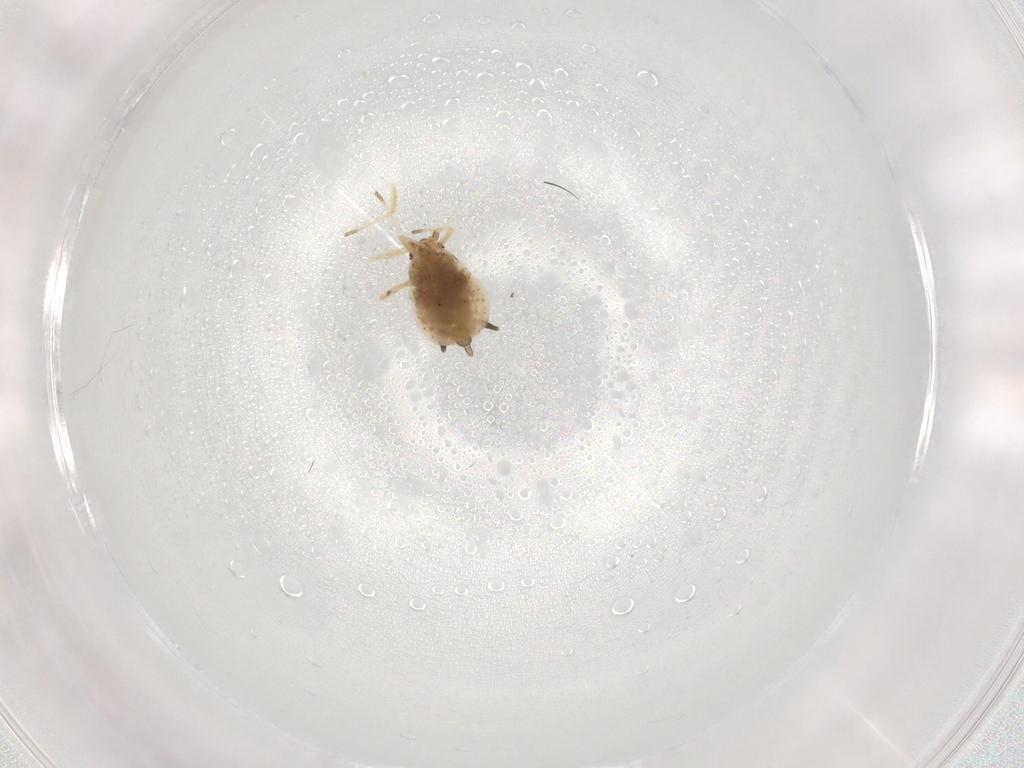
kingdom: Animalia
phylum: Arthropoda
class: Insecta
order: Hemiptera
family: Aphididae
